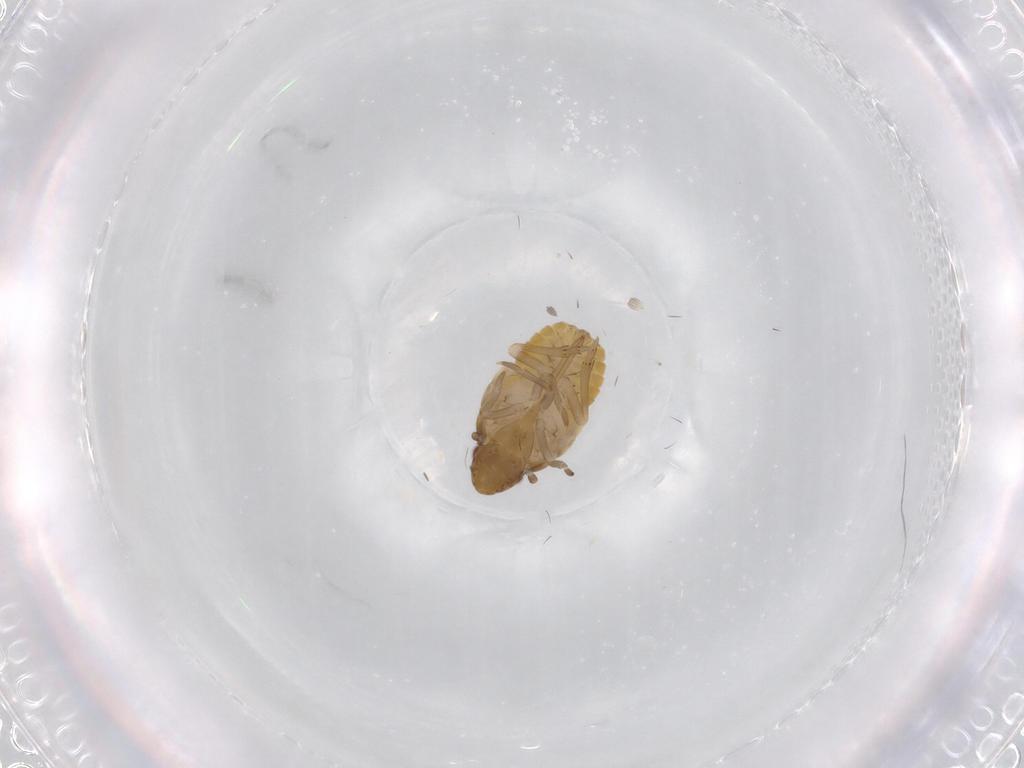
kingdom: Animalia
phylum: Arthropoda
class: Insecta
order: Hemiptera
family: Flatidae
